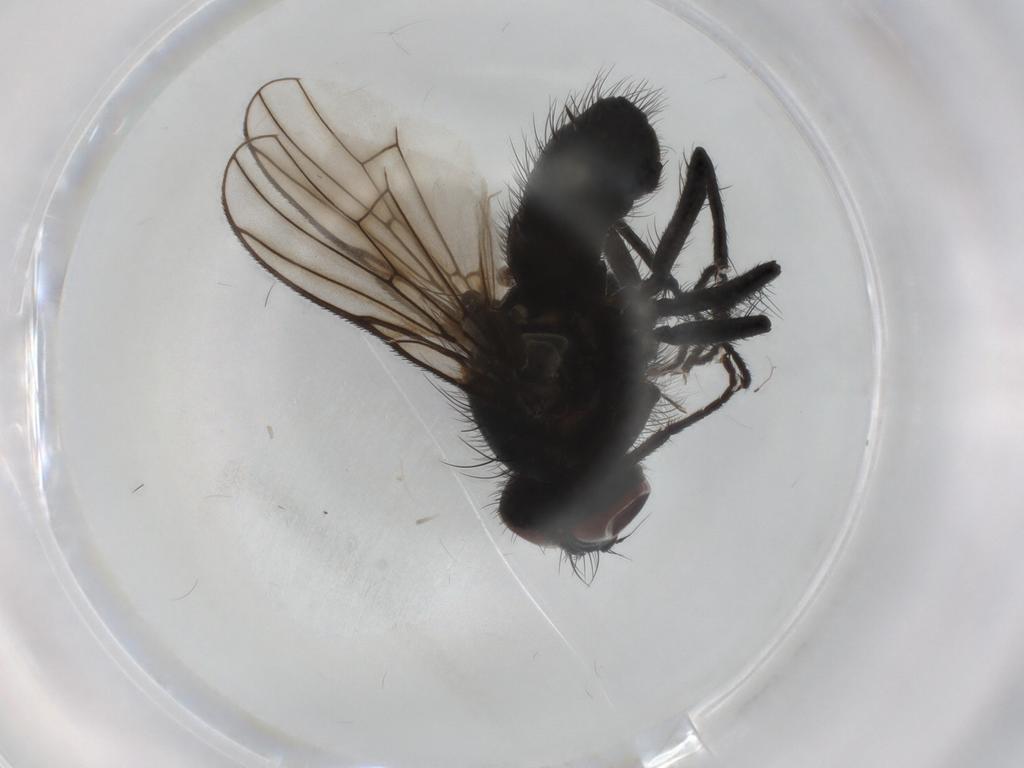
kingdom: Animalia
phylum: Arthropoda
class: Insecta
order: Diptera
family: Muscidae
